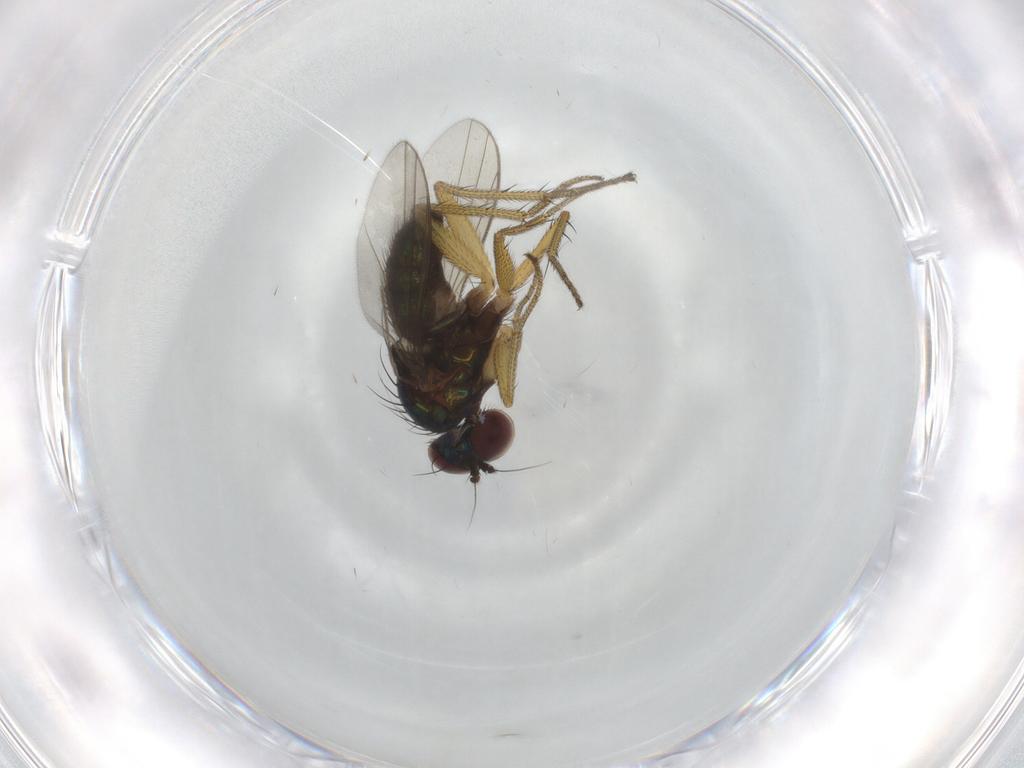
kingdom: Animalia
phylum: Arthropoda
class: Insecta
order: Diptera
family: Dolichopodidae
